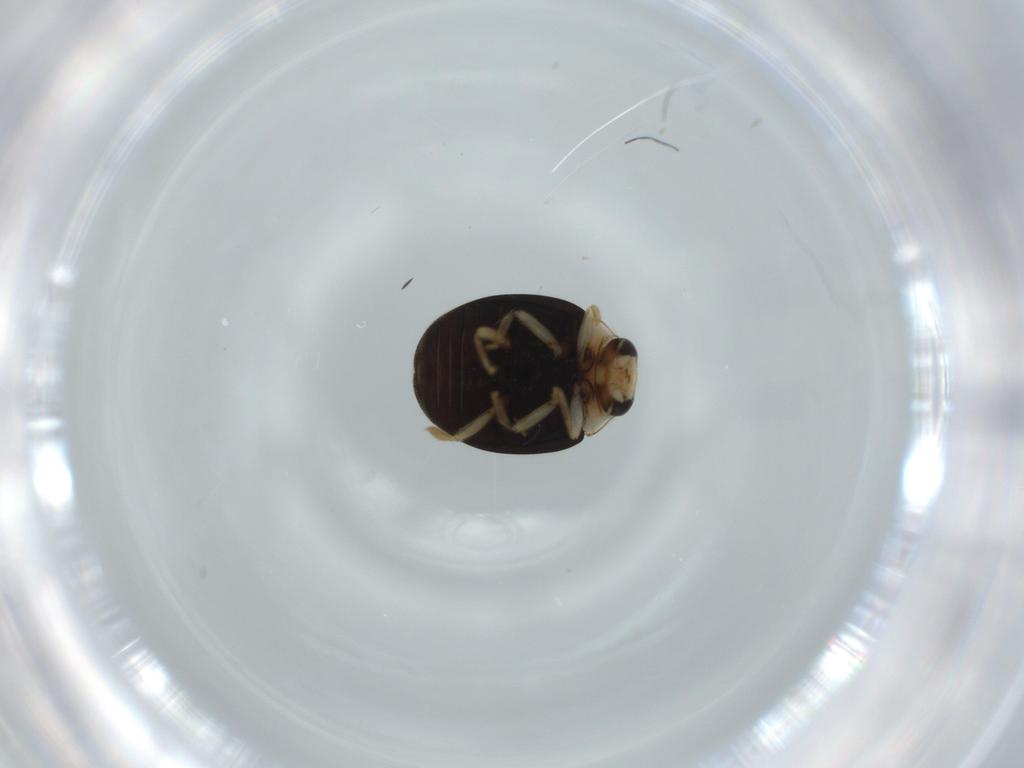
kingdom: Animalia
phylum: Arthropoda
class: Insecta
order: Coleoptera
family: Coccinellidae
